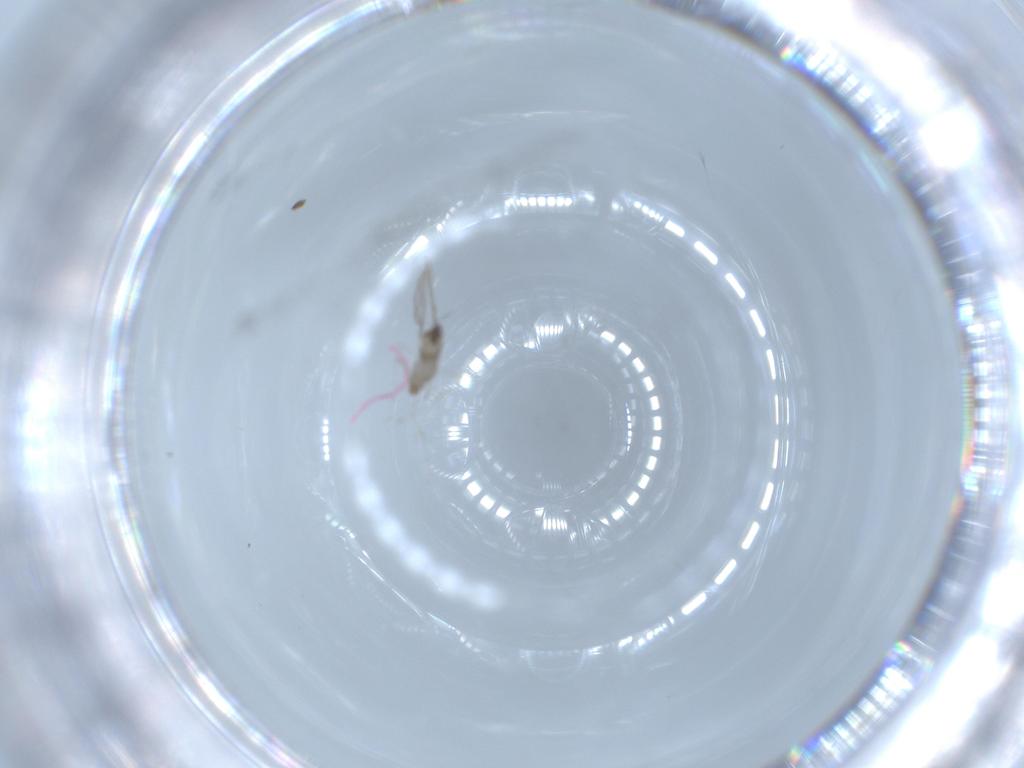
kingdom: Animalia
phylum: Arthropoda
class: Insecta
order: Diptera
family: Cecidomyiidae
